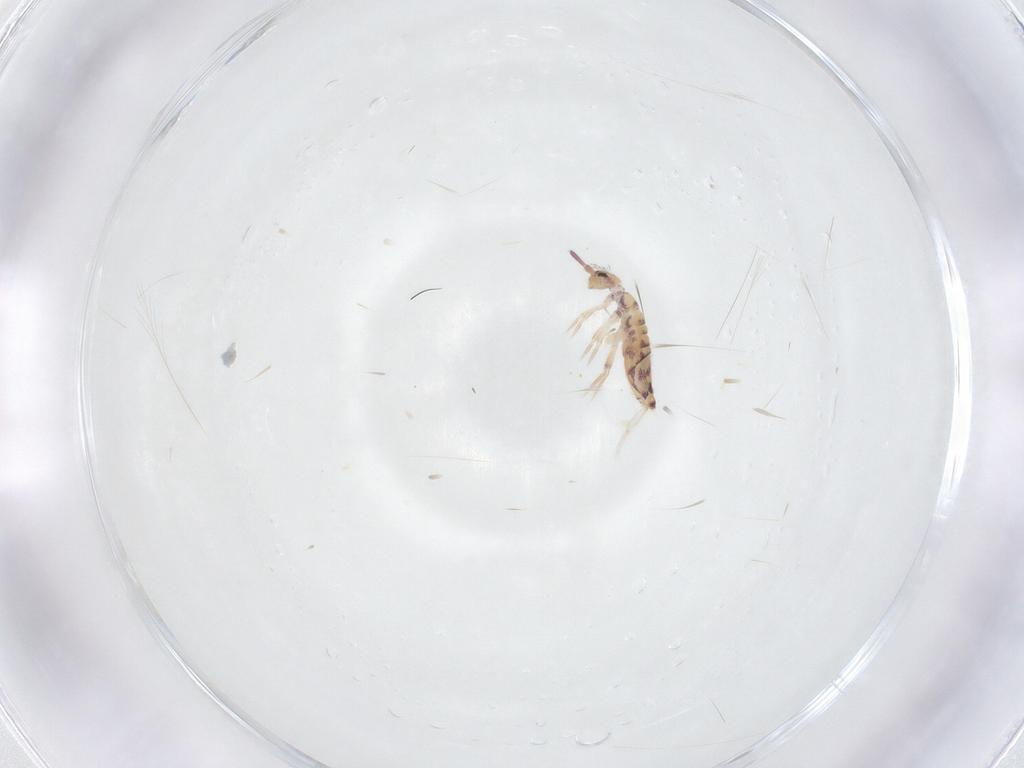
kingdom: Animalia
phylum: Arthropoda
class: Collembola
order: Entomobryomorpha
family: Entomobryidae
